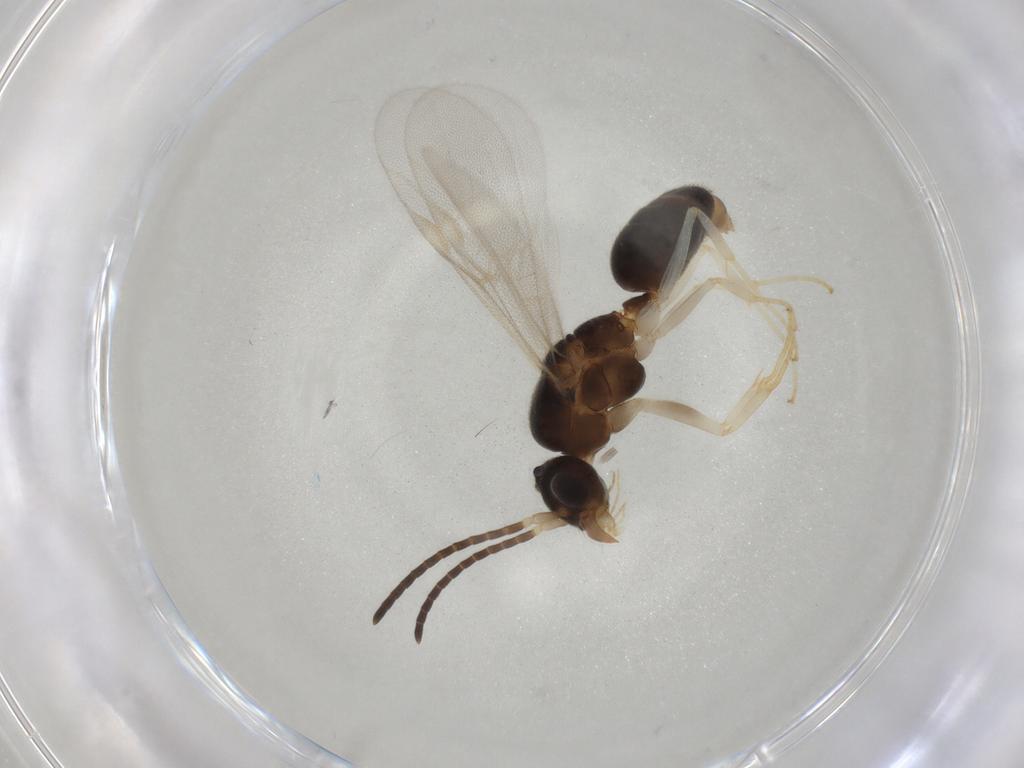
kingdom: Animalia
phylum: Arthropoda
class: Insecta
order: Hymenoptera
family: Formicidae
